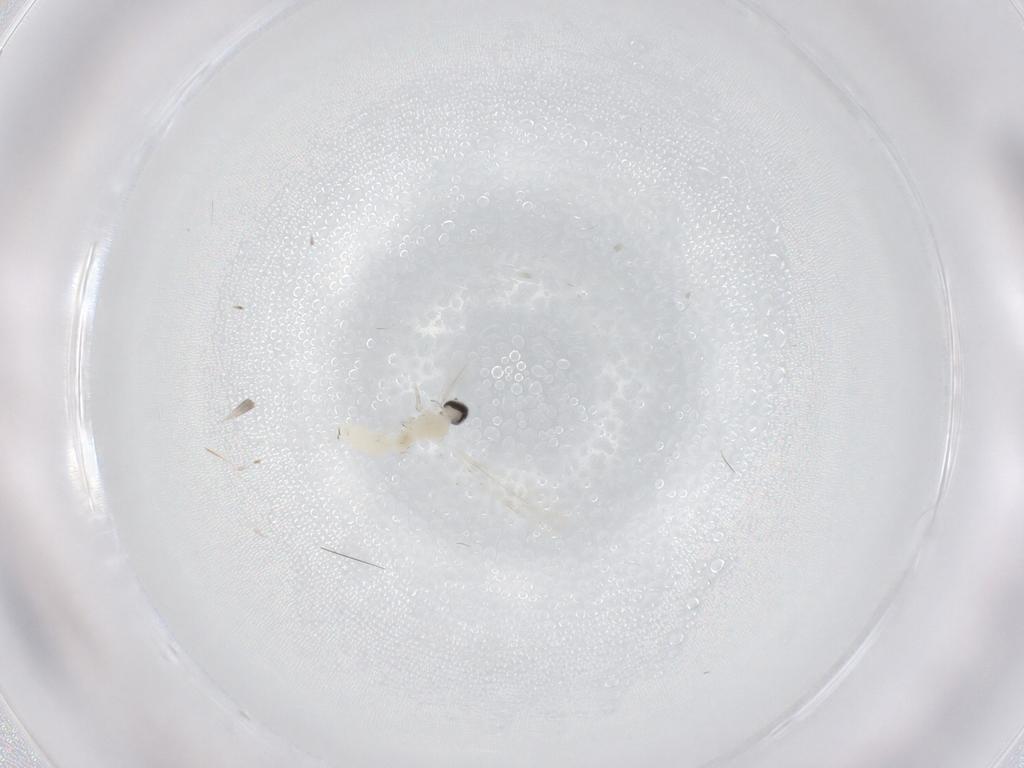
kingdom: Animalia
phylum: Arthropoda
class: Insecta
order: Diptera
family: Cecidomyiidae
